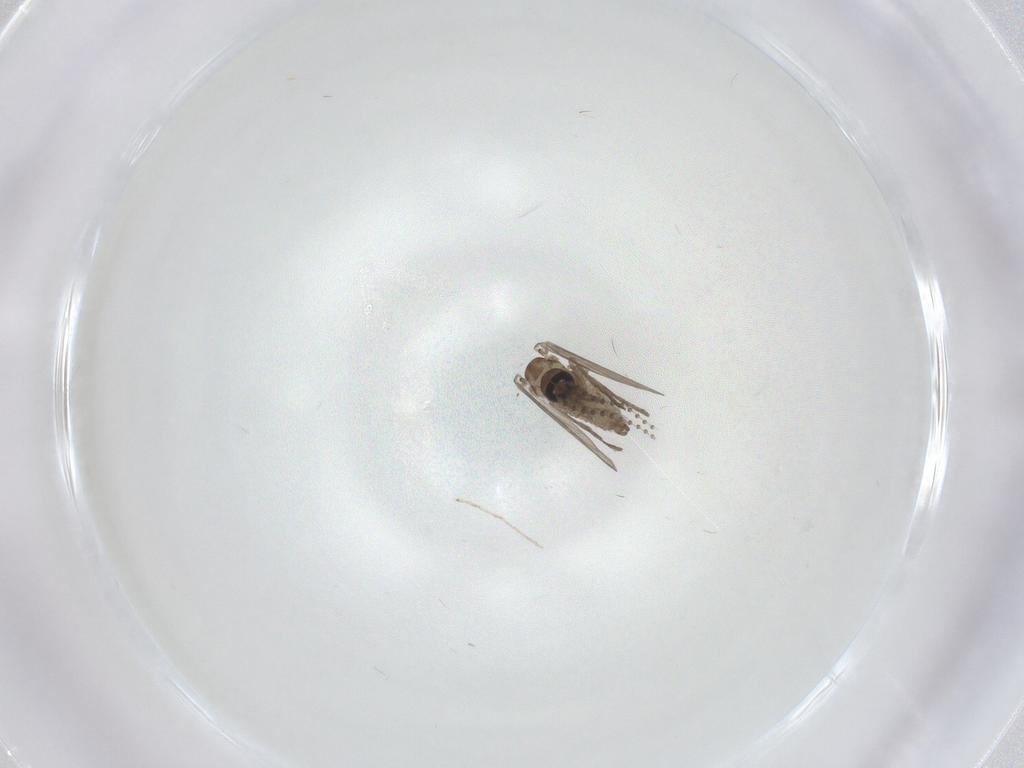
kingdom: Animalia
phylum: Arthropoda
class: Insecta
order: Diptera
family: Psychodidae
